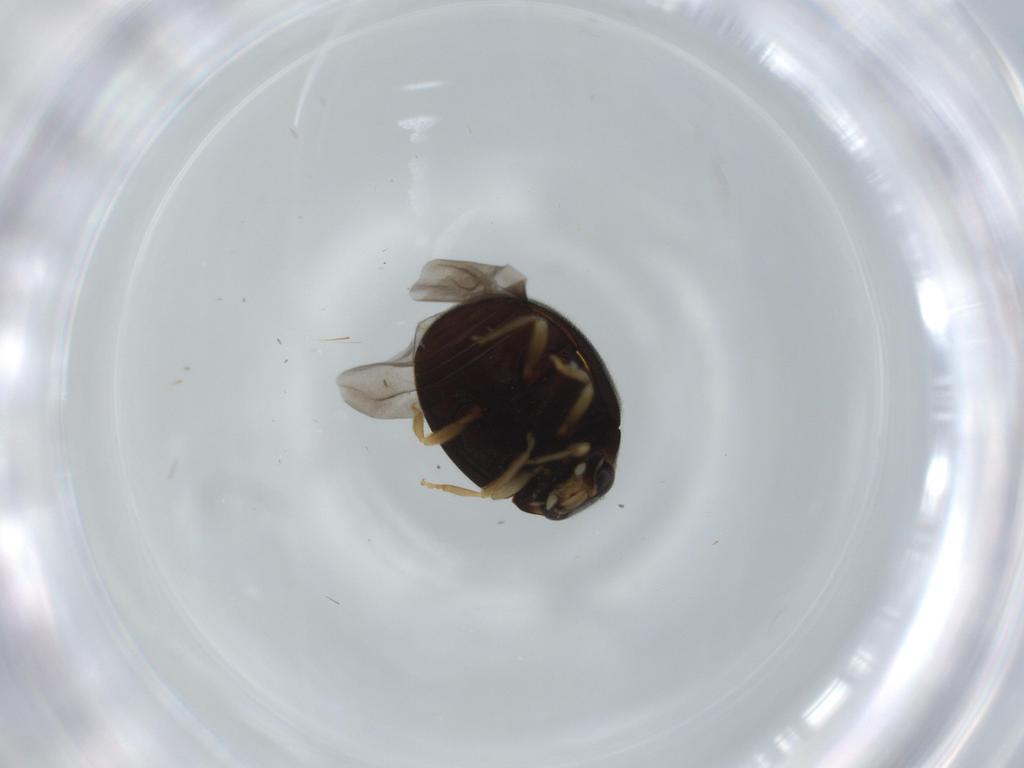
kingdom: Animalia
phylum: Arthropoda
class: Insecta
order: Coleoptera
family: Coccinellidae
